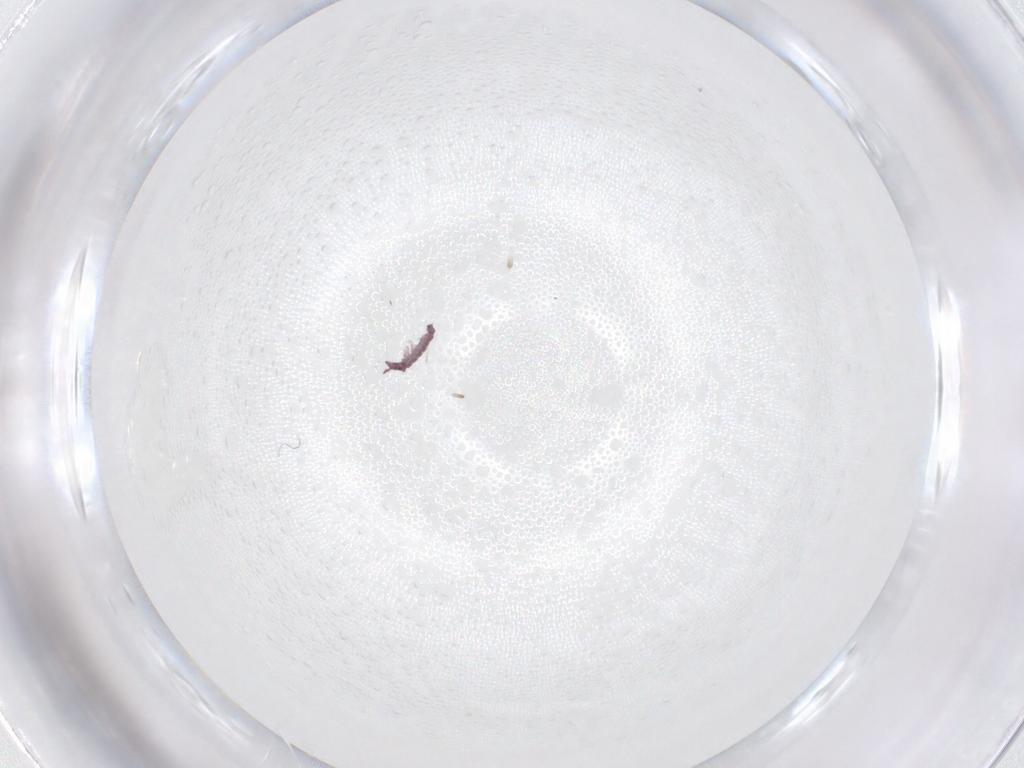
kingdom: Animalia
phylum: Arthropoda
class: Collembola
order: Poduromorpha
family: Hypogastruridae
